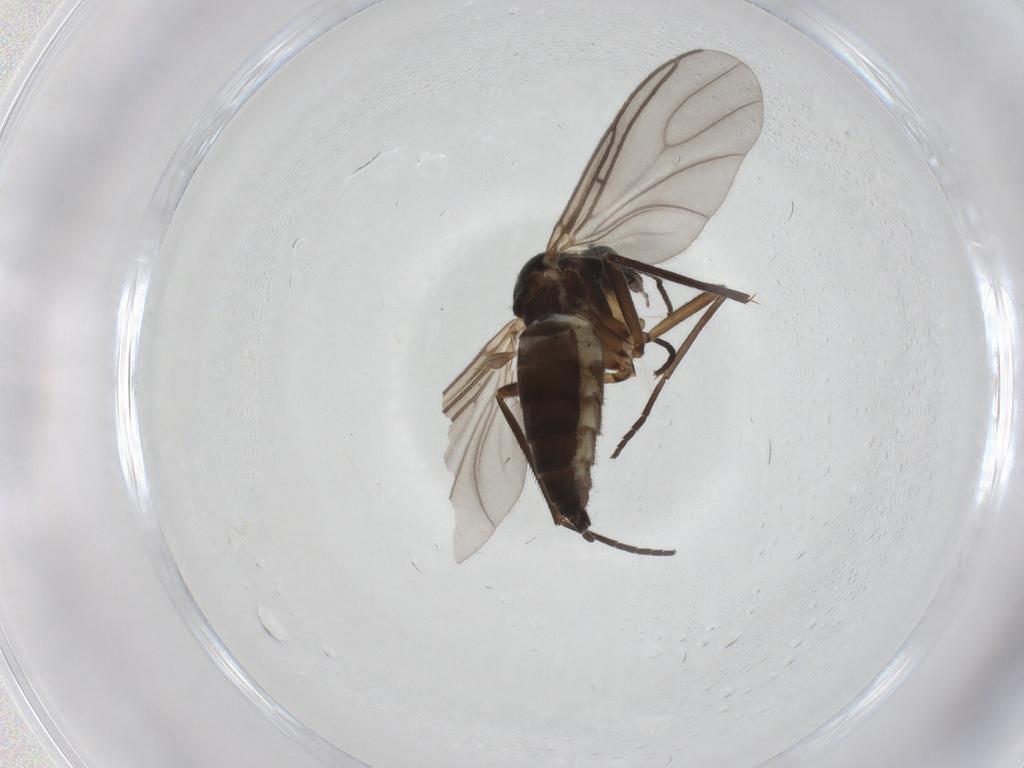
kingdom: Animalia
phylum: Arthropoda
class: Insecta
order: Diptera
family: Sciaridae
